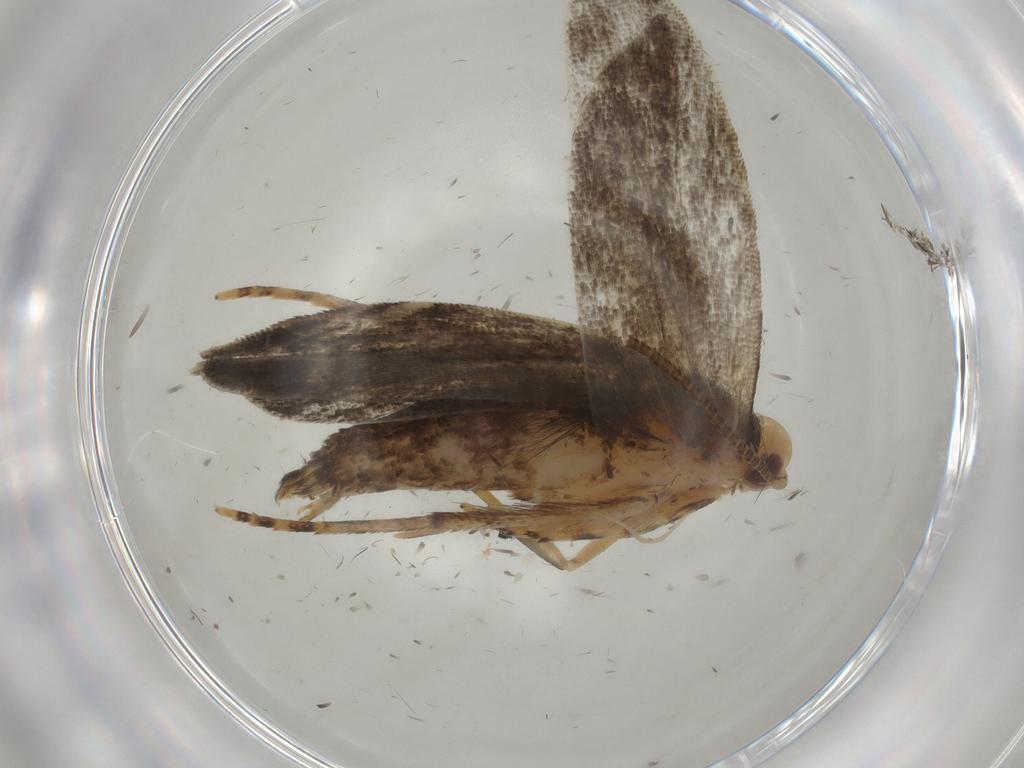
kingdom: Animalia
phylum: Arthropoda
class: Insecta
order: Lepidoptera
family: Gelechiidae
